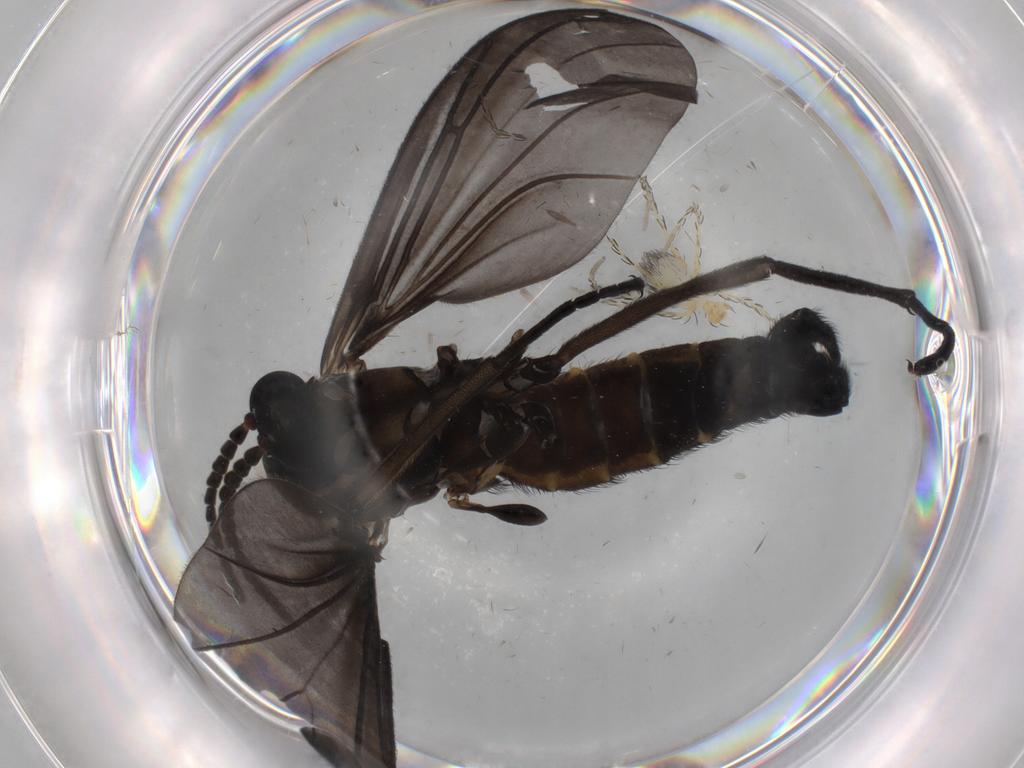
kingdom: Animalia
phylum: Arthropoda
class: Insecta
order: Diptera
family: Sciaridae
